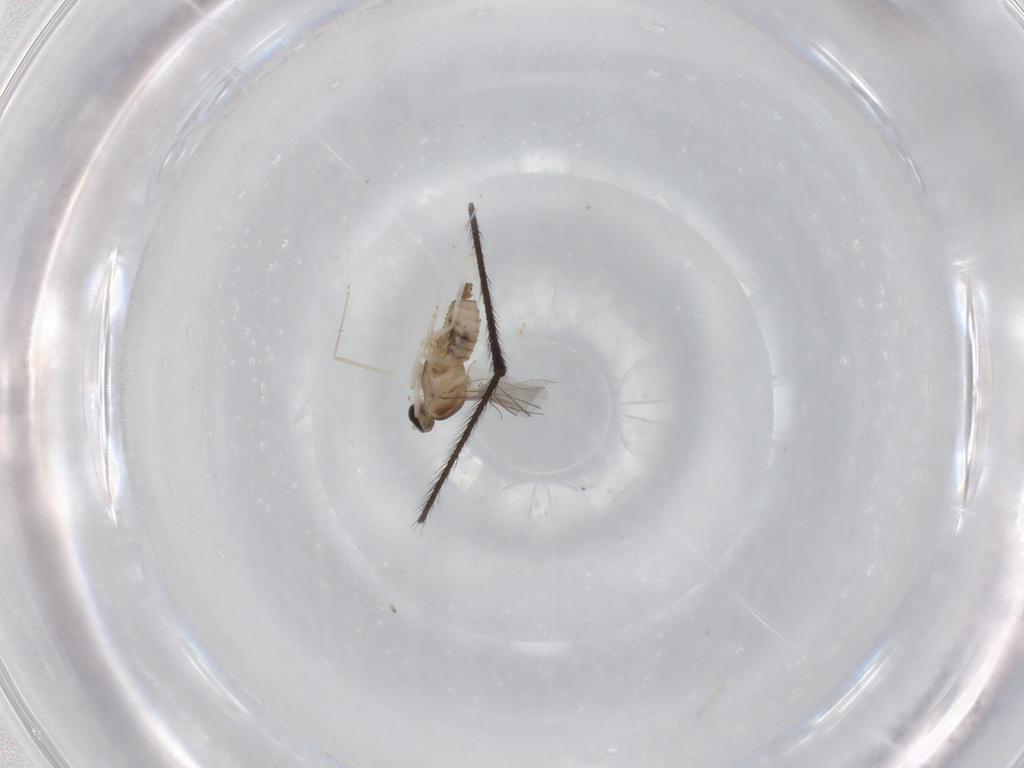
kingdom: Animalia
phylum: Arthropoda
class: Insecta
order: Diptera
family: Cecidomyiidae
